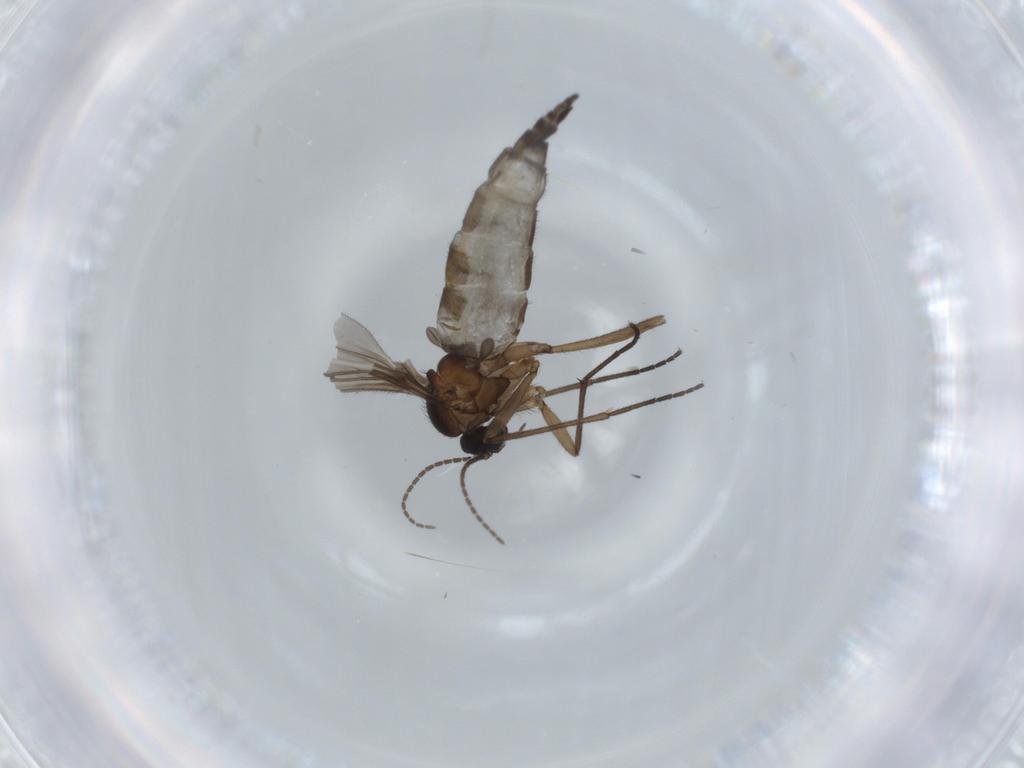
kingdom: Animalia
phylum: Arthropoda
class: Insecta
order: Diptera
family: Sciaridae
